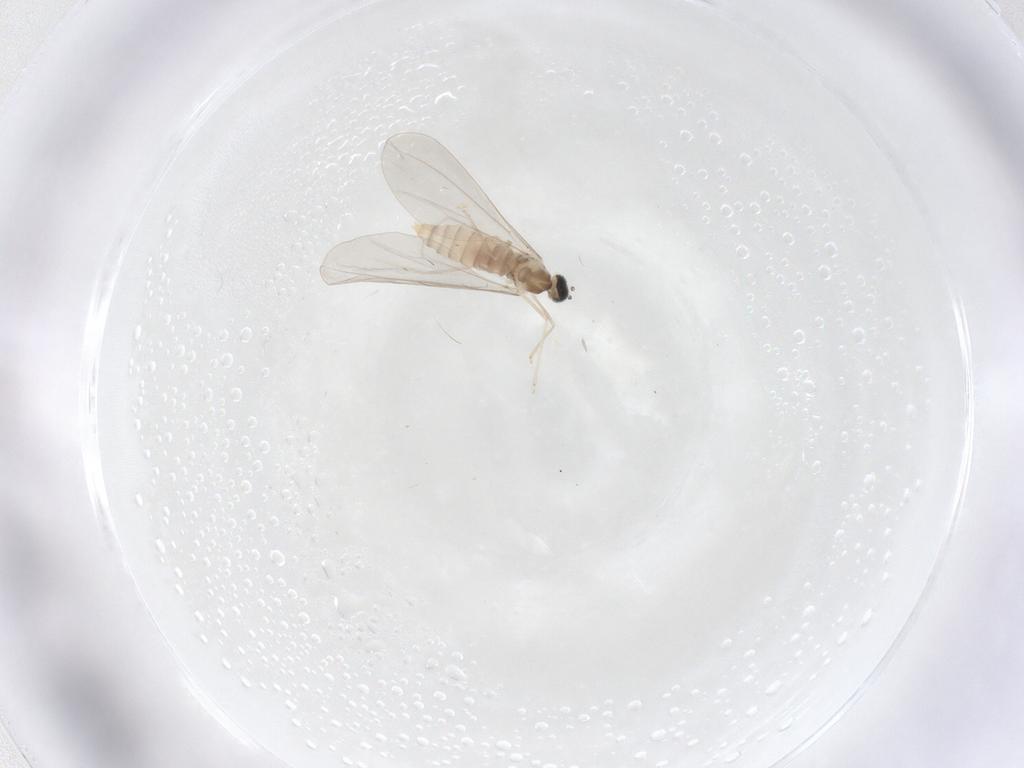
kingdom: Animalia
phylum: Arthropoda
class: Insecta
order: Diptera
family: Cecidomyiidae
